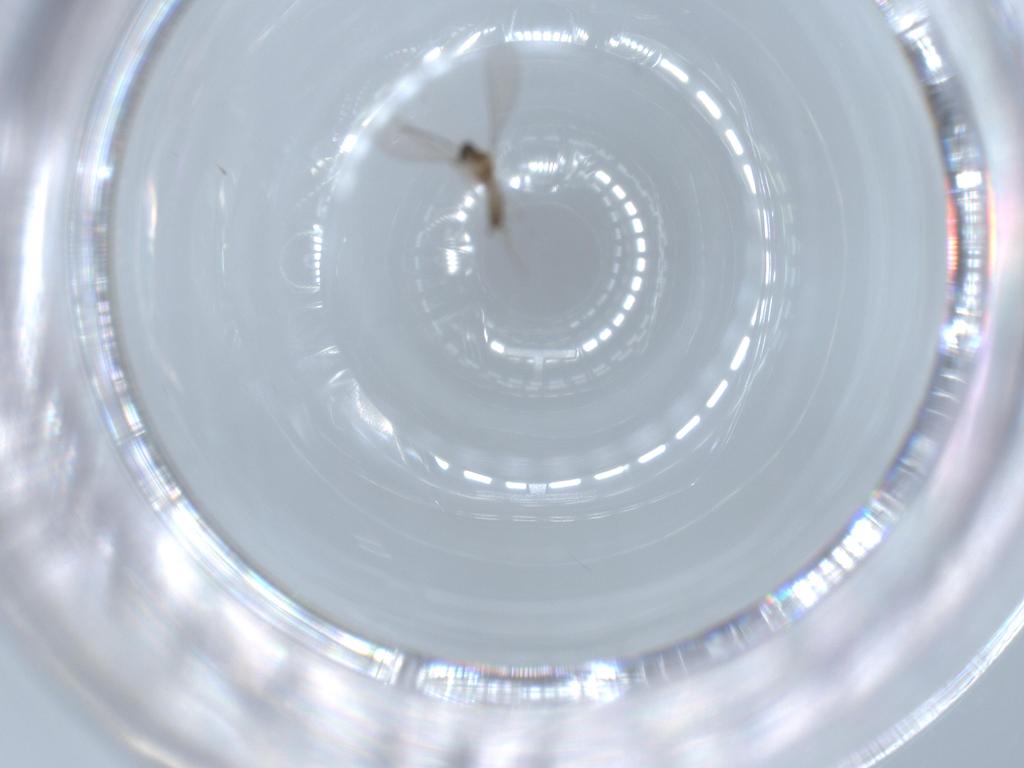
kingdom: Animalia
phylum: Arthropoda
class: Insecta
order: Diptera
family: Cecidomyiidae
